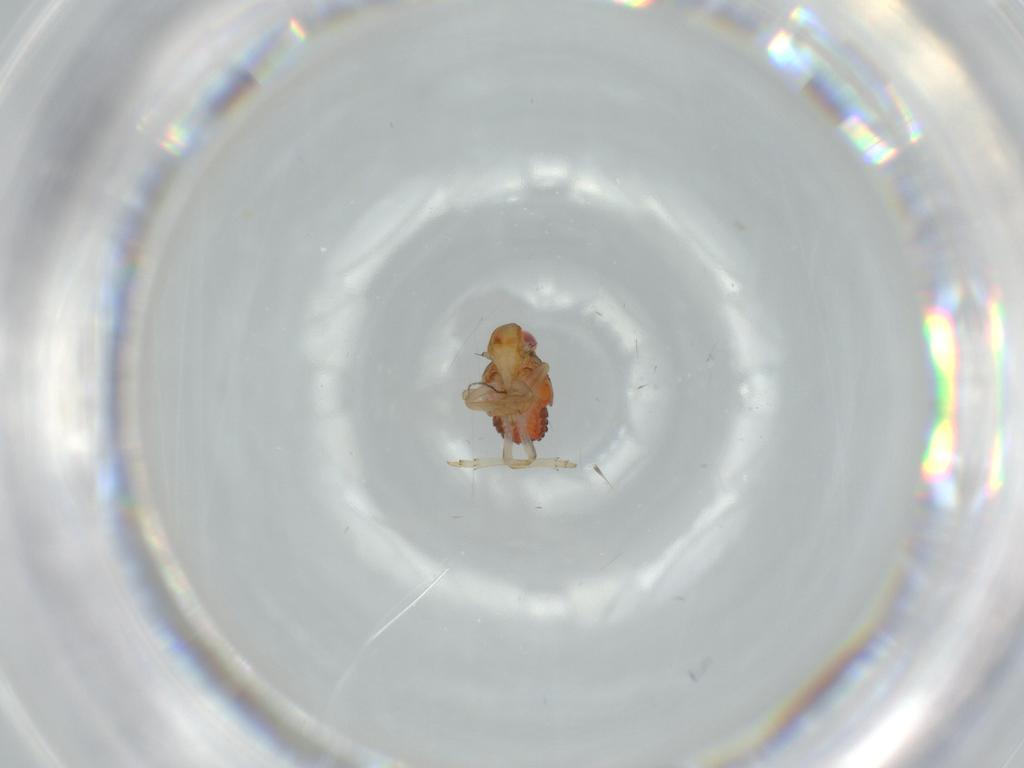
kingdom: Animalia
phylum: Arthropoda
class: Insecta
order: Hemiptera
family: Issidae
